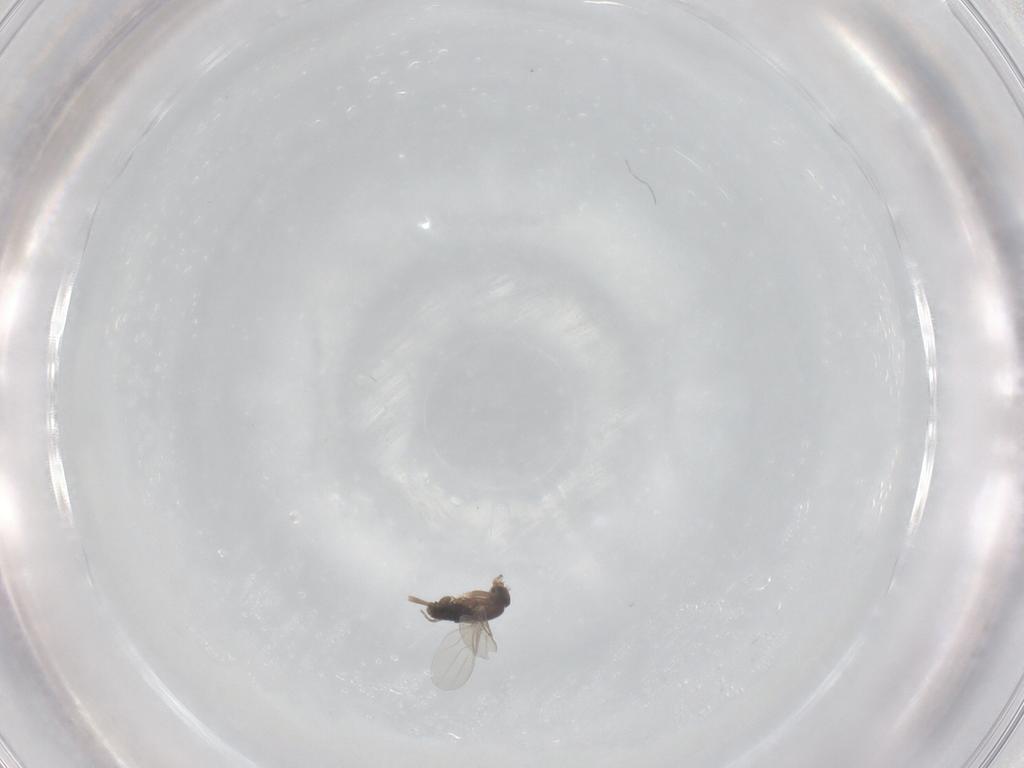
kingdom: Animalia
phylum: Arthropoda
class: Insecta
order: Diptera
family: Phoridae
